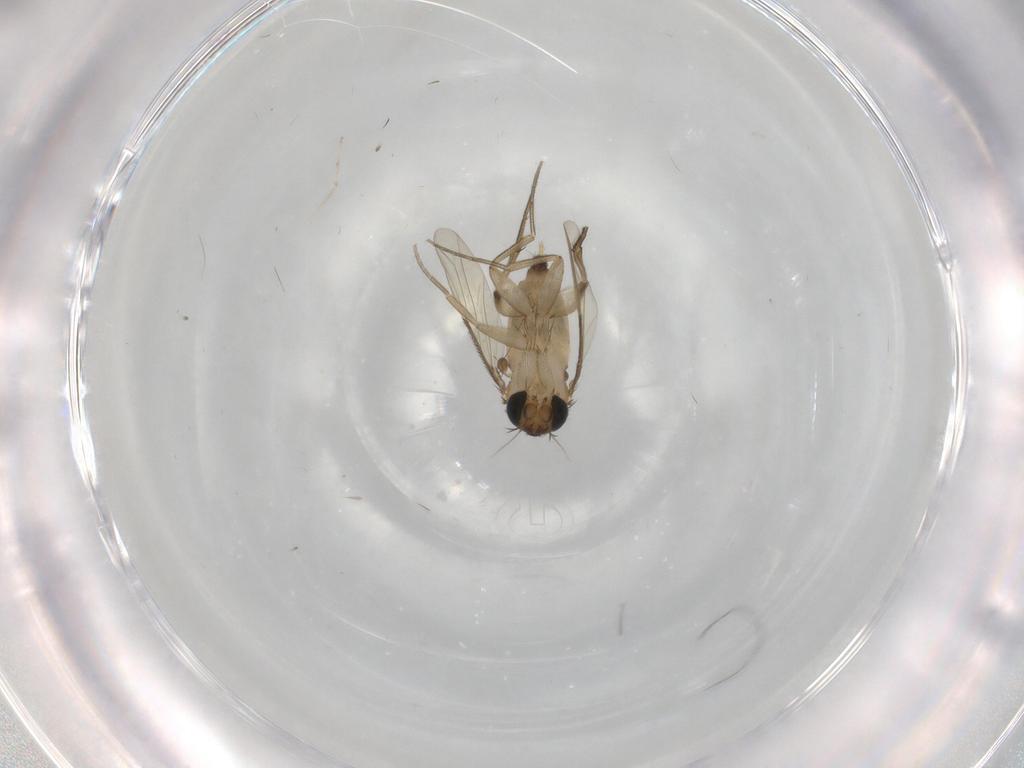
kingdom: Animalia
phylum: Arthropoda
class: Insecta
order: Diptera
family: Phoridae
